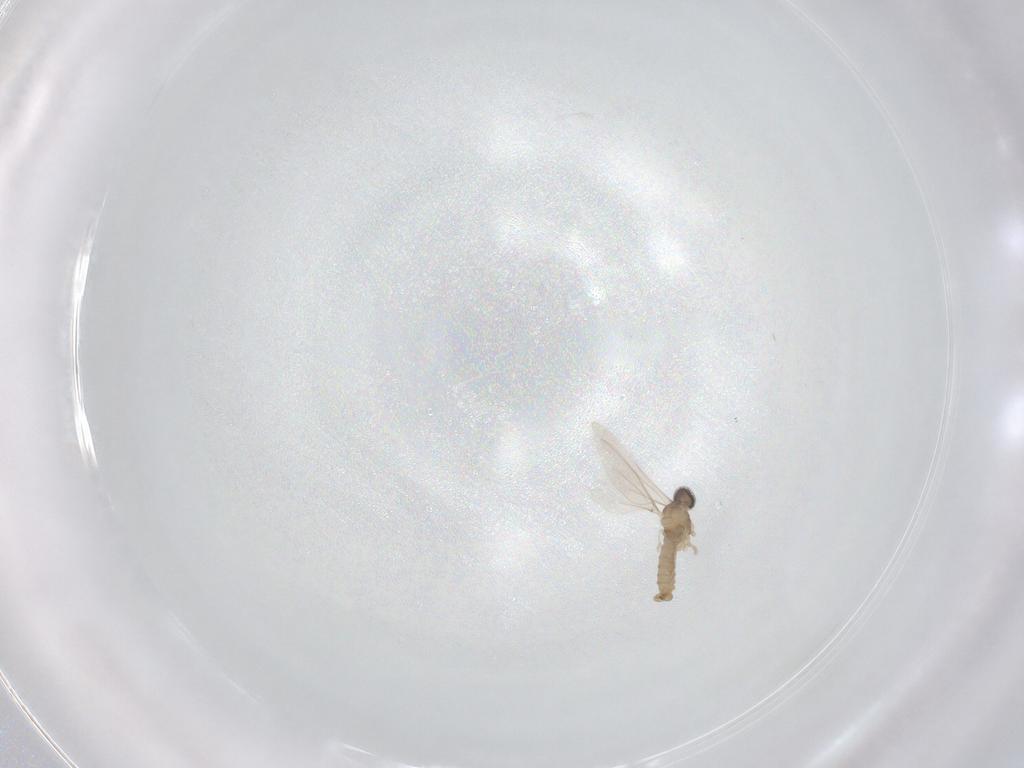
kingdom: Animalia
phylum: Arthropoda
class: Insecta
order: Diptera
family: Cecidomyiidae
